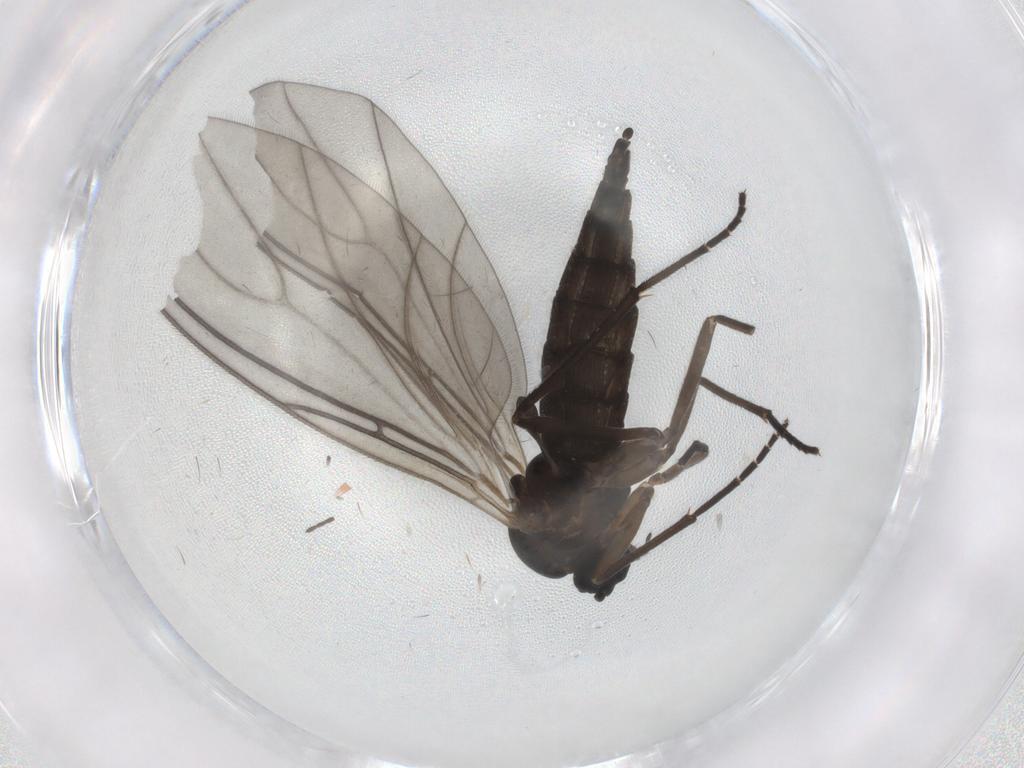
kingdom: Animalia
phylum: Arthropoda
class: Insecta
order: Diptera
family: Sciaridae
